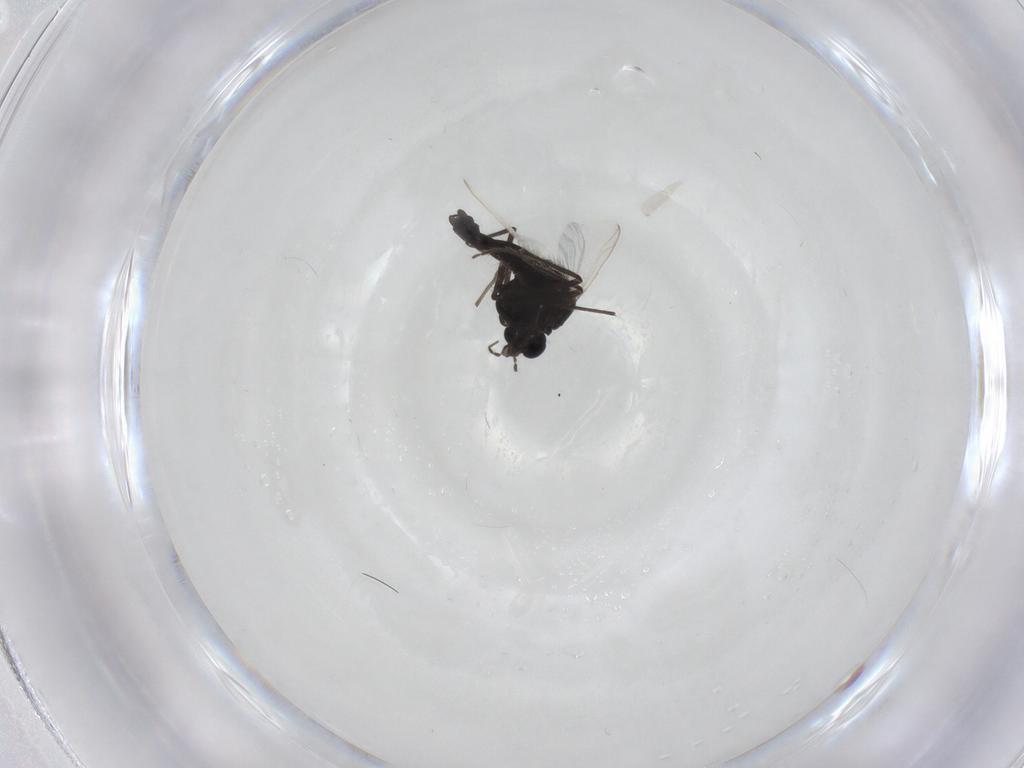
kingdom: Animalia
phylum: Arthropoda
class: Insecta
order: Diptera
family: Chironomidae
